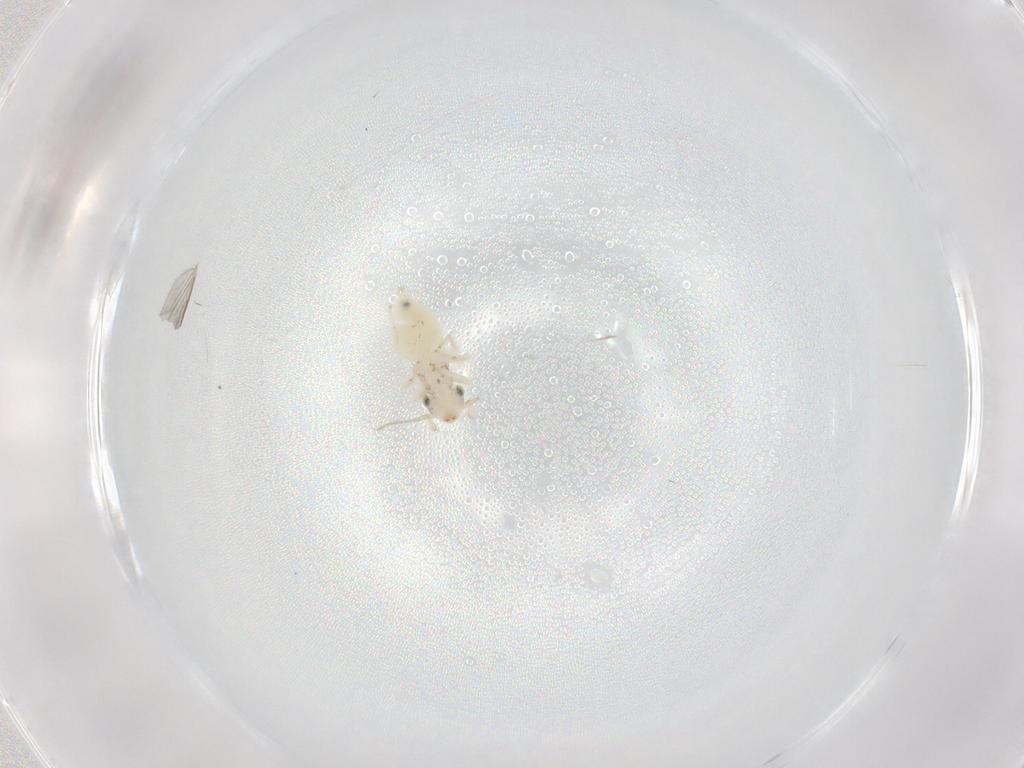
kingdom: Animalia
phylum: Arthropoda
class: Insecta
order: Psocodea
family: Lepidopsocidae
